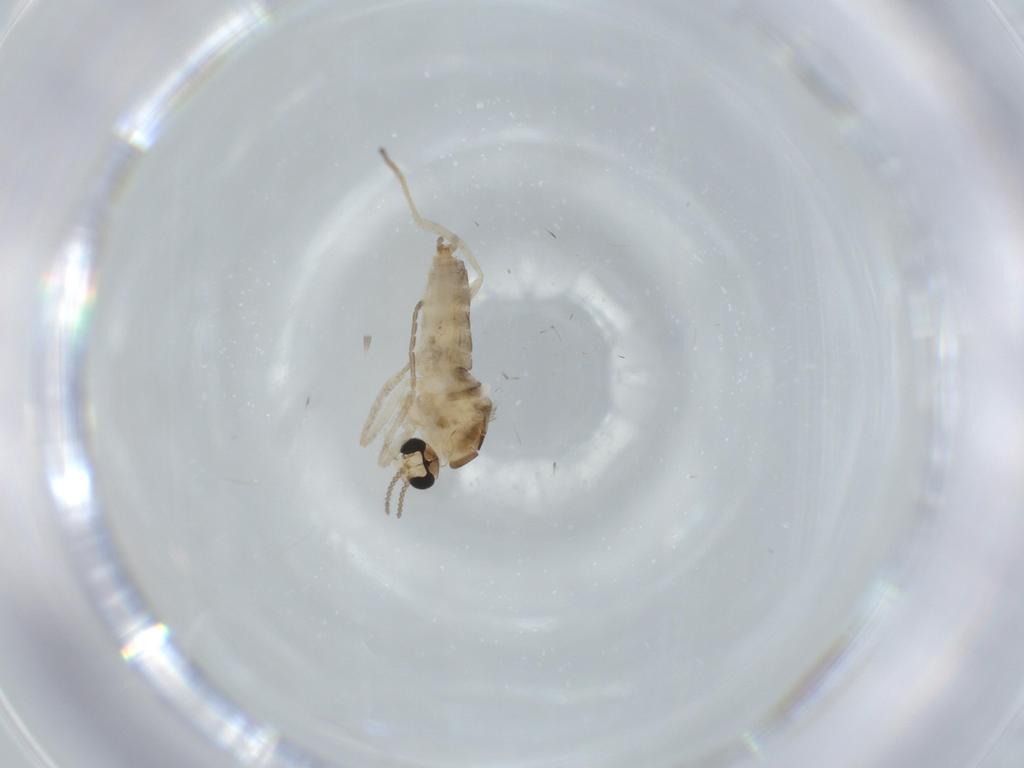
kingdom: Animalia
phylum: Arthropoda
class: Insecta
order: Diptera
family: Cecidomyiidae
